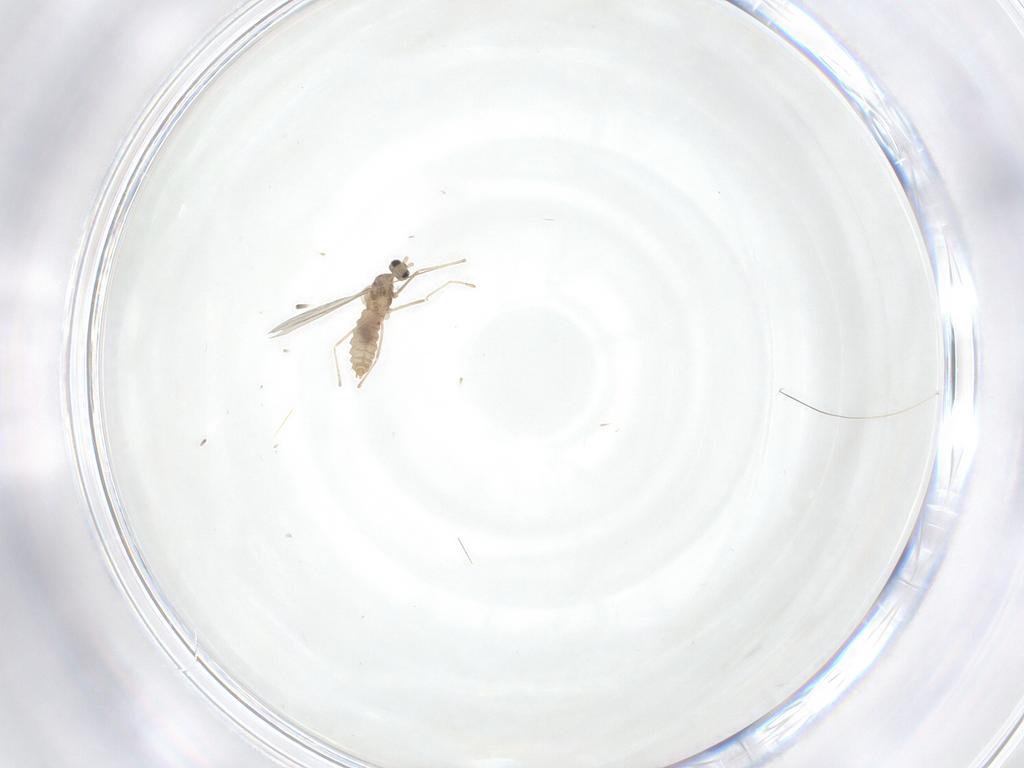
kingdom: Animalia
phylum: Arthropoda
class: Insecta
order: Diptera
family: Cecidomyiidae
